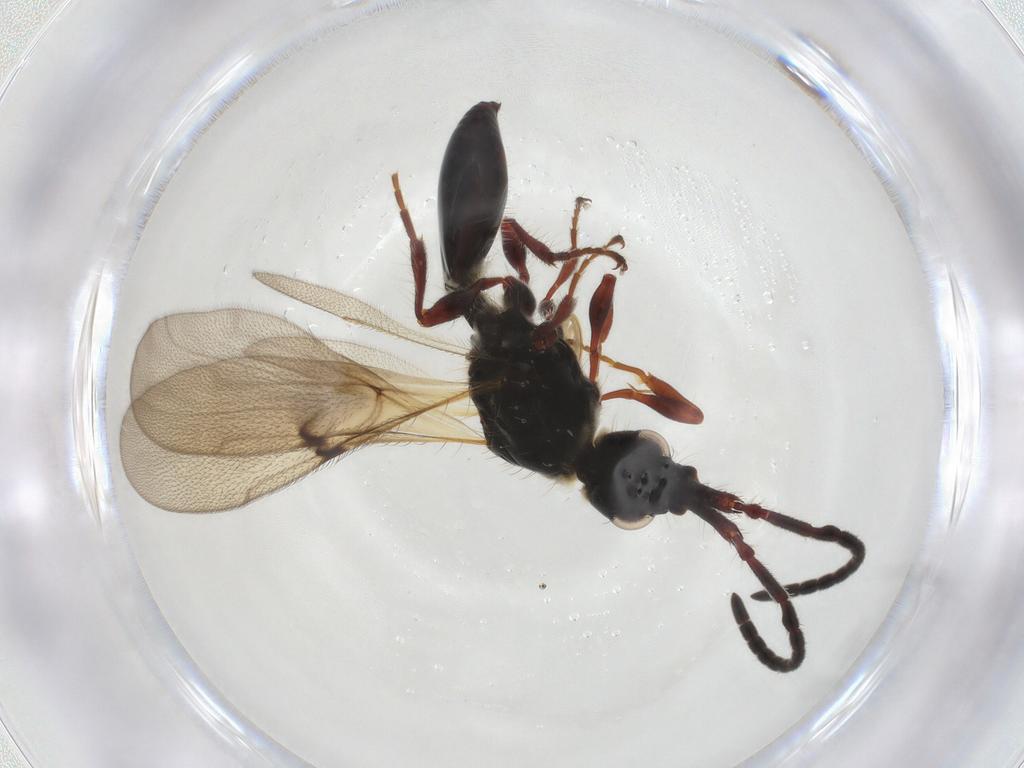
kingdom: Animalia
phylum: Arthropoda
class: Insecta
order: Hymenoptera
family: Diapriidae
